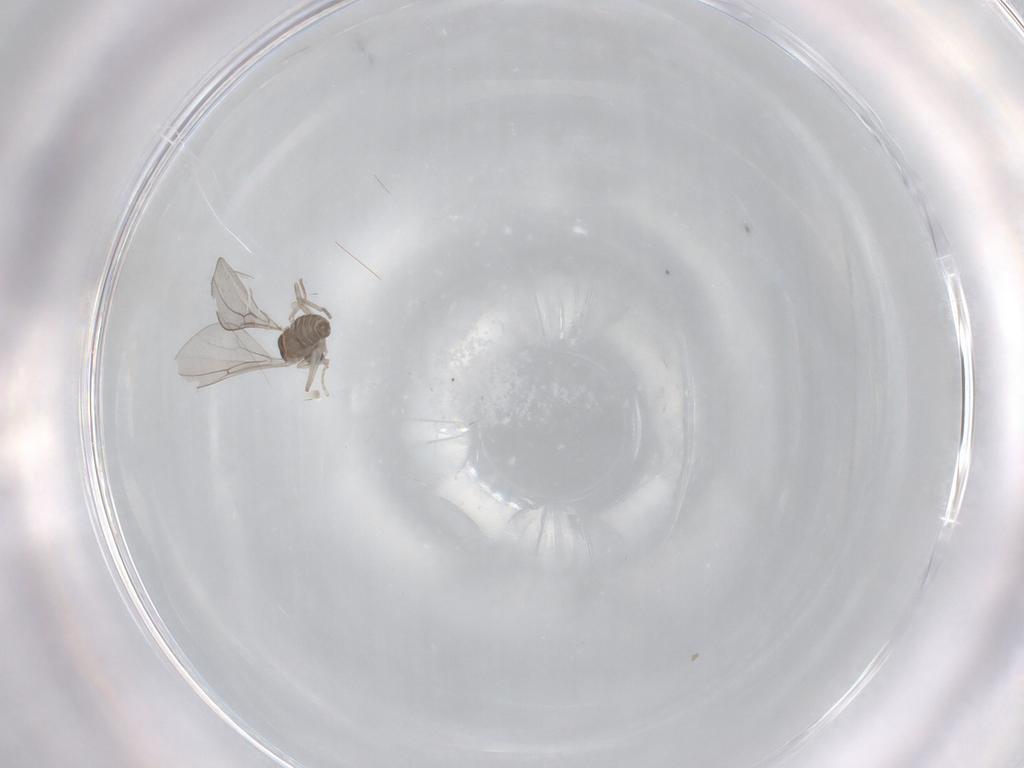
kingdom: Animalia
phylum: Arthropoda
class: Insecta
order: Diptera
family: Cecidomyiidae
